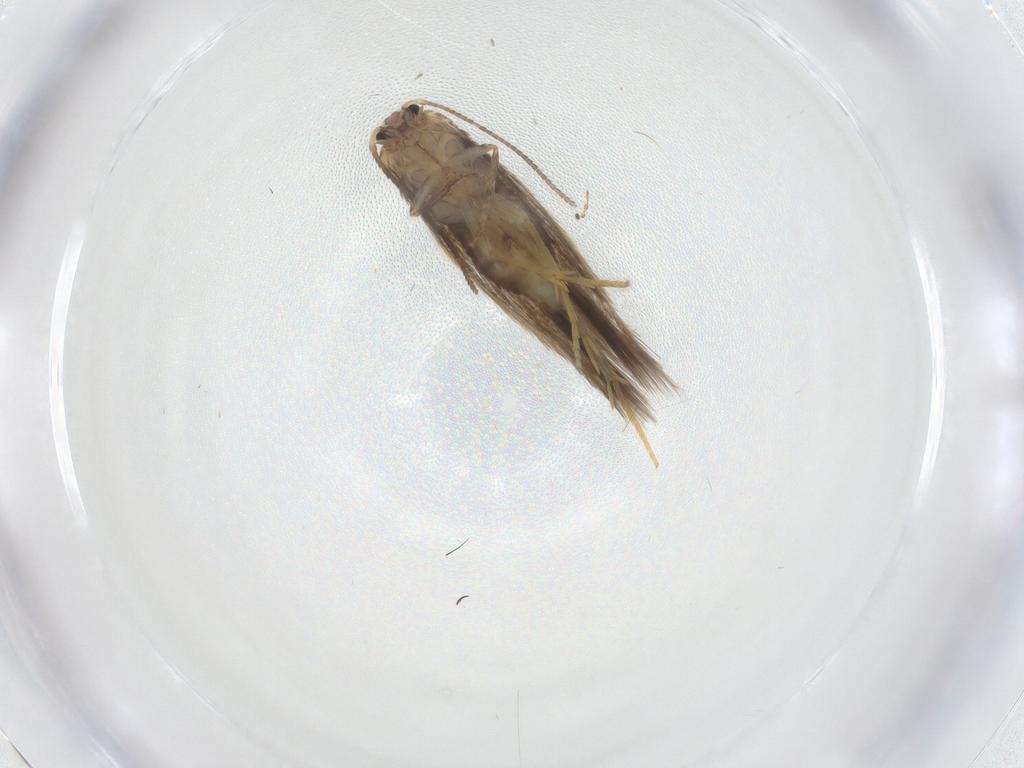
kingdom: Animalia
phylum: Arthropoda
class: Insecta
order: Lepidoptera
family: Nepticulidae
